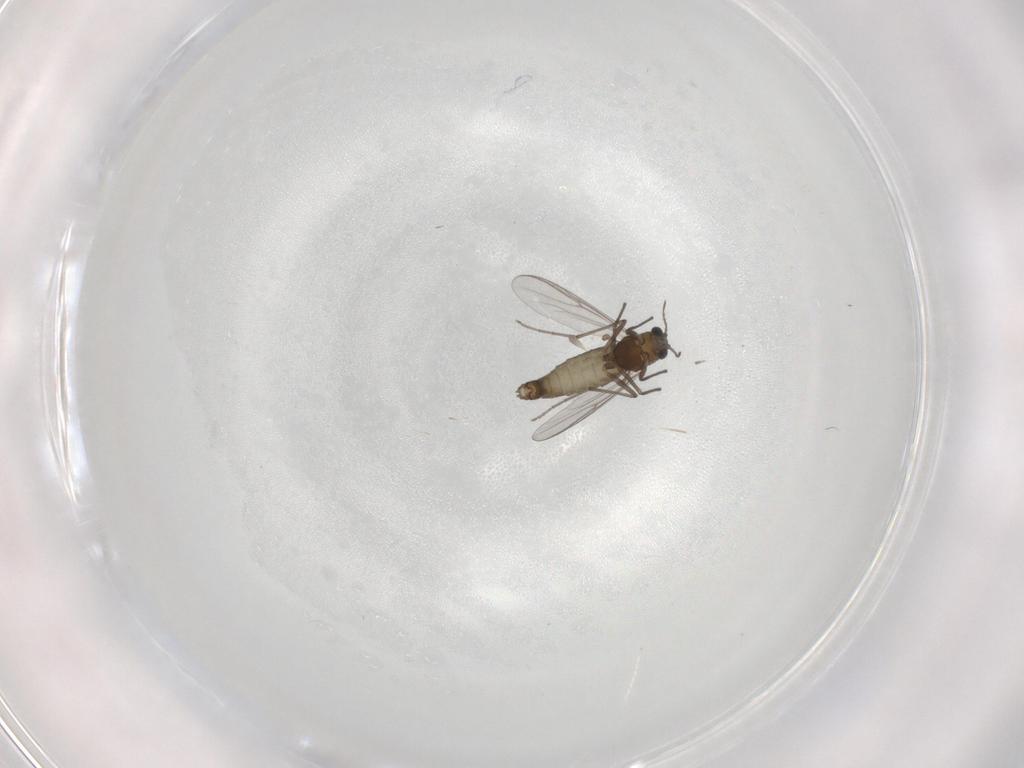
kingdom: Animalia
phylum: Arthropoda
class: Insecta
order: Diptera
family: Chironomidae
